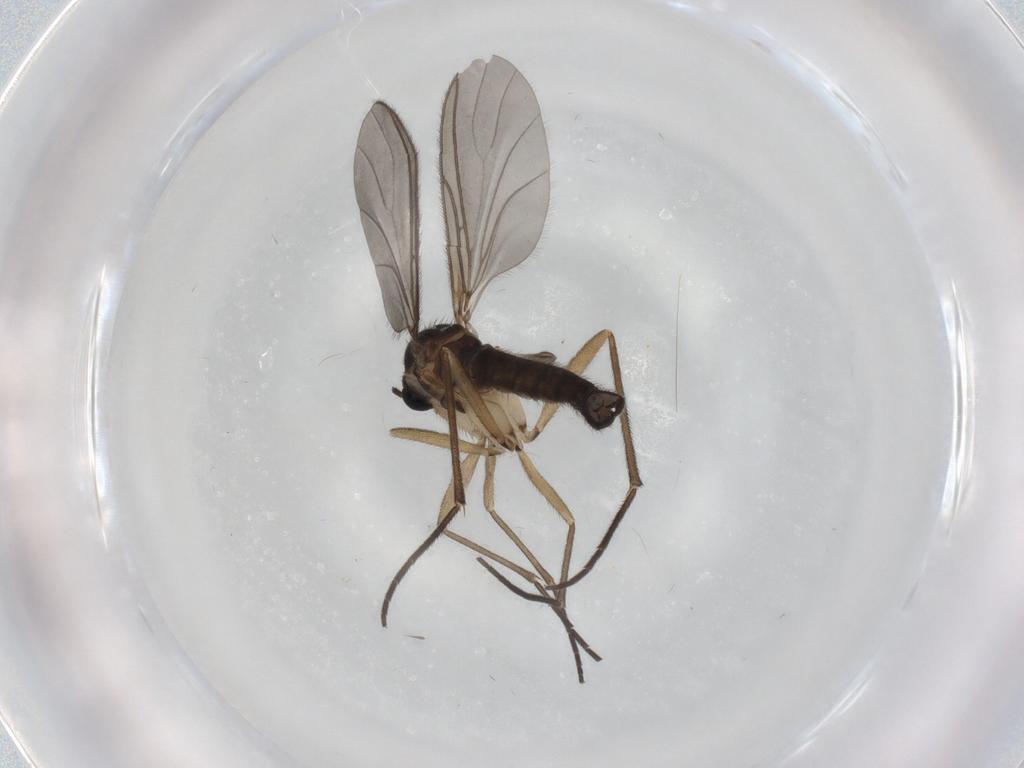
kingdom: Animalia
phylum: Arthropoda
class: Insecta
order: Diptera
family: Sciaridae
